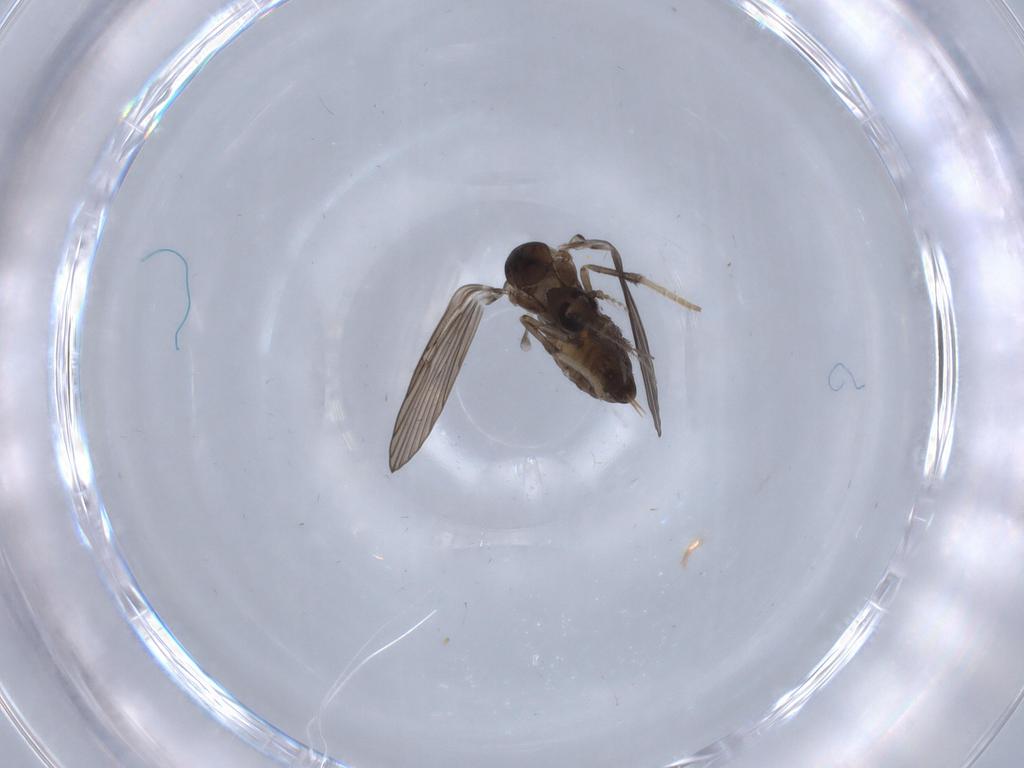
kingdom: Animalia
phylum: Arthropoda
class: Insecta
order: Diptera
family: Psychodidae
